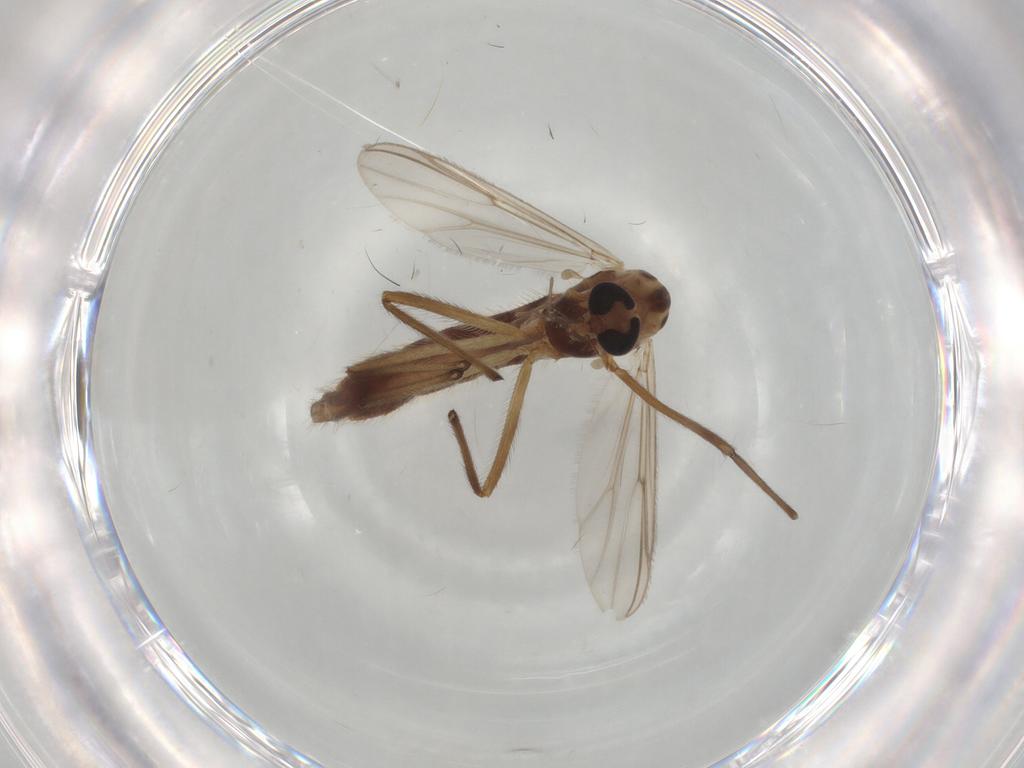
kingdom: Animalia
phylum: Arthropoda
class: Insecta
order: Diptera
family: Chironomidae
